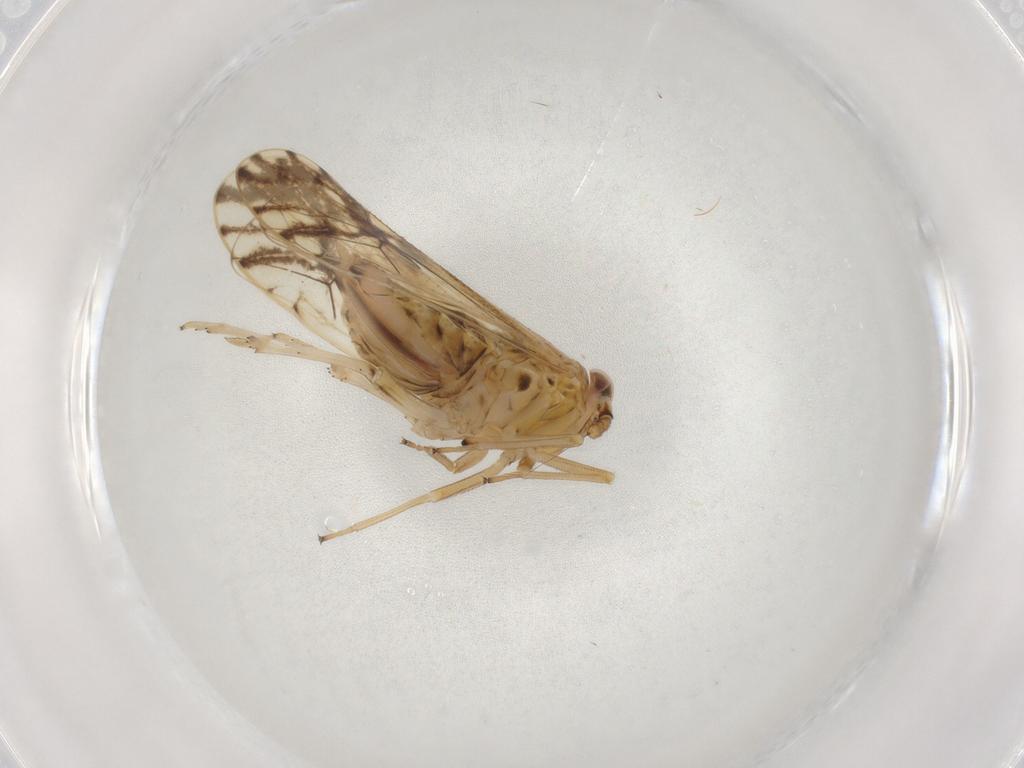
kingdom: Animalia
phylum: Arthropoda
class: Insecta
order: Hemiptera
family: Delphacidae
